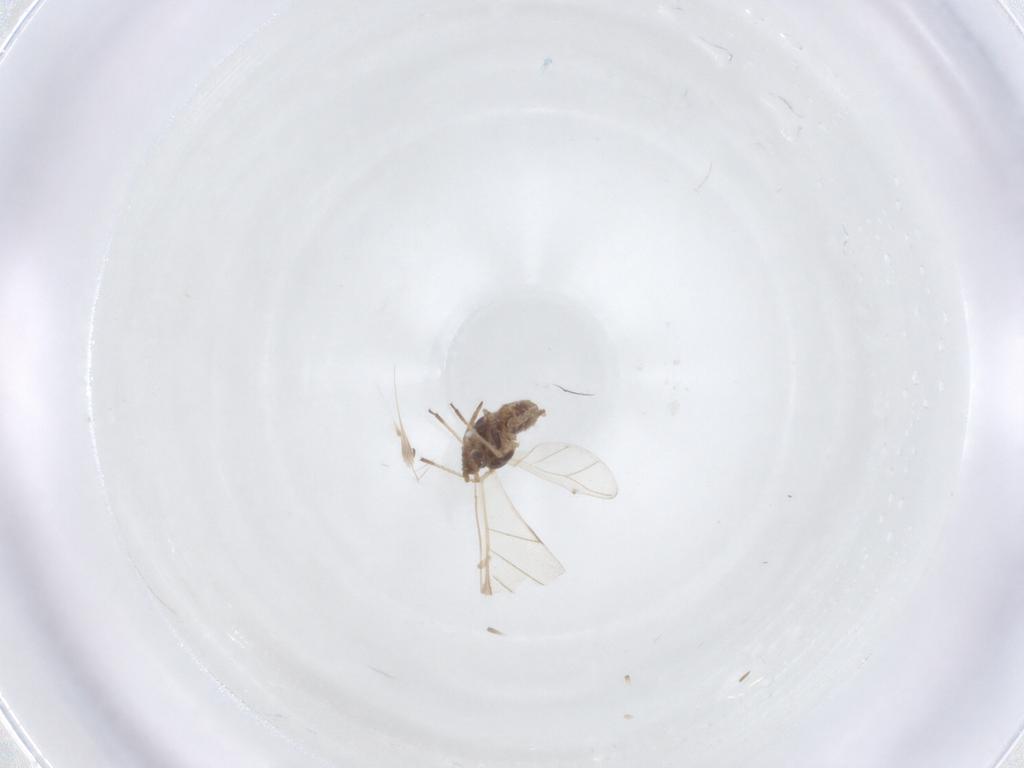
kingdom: Animalia
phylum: Arthropoda
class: Insecta
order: Hemiptera
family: Aphididae
